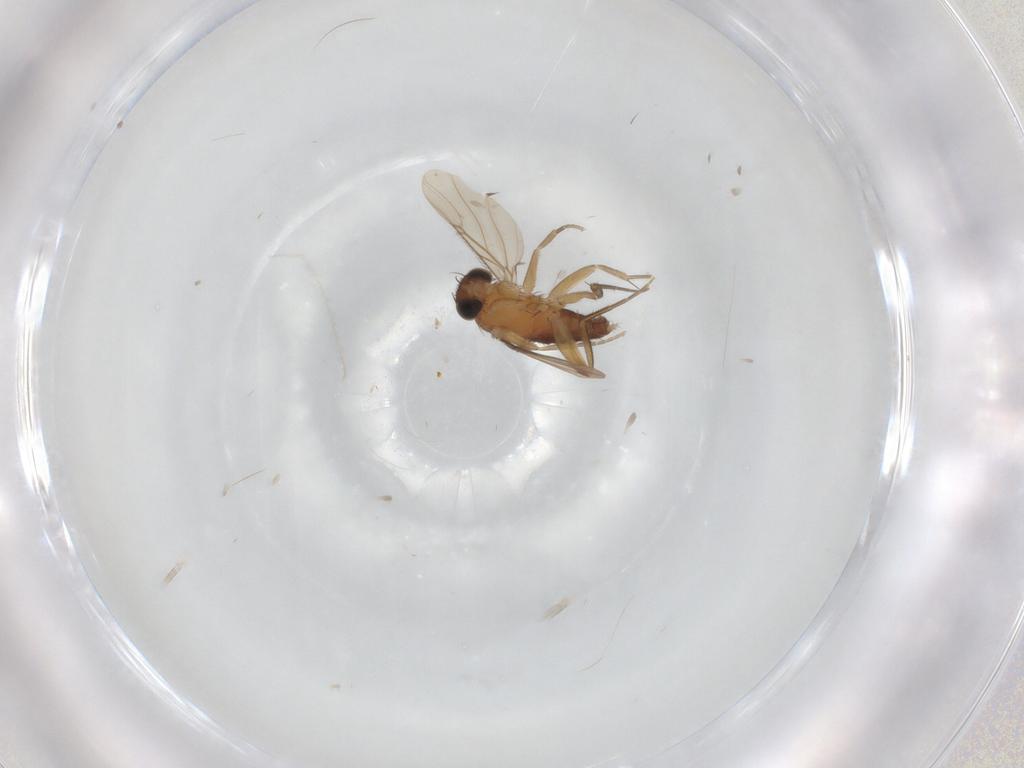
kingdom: Animalia
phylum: Arthropoda
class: Insecta
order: Diptera
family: Phoridae
